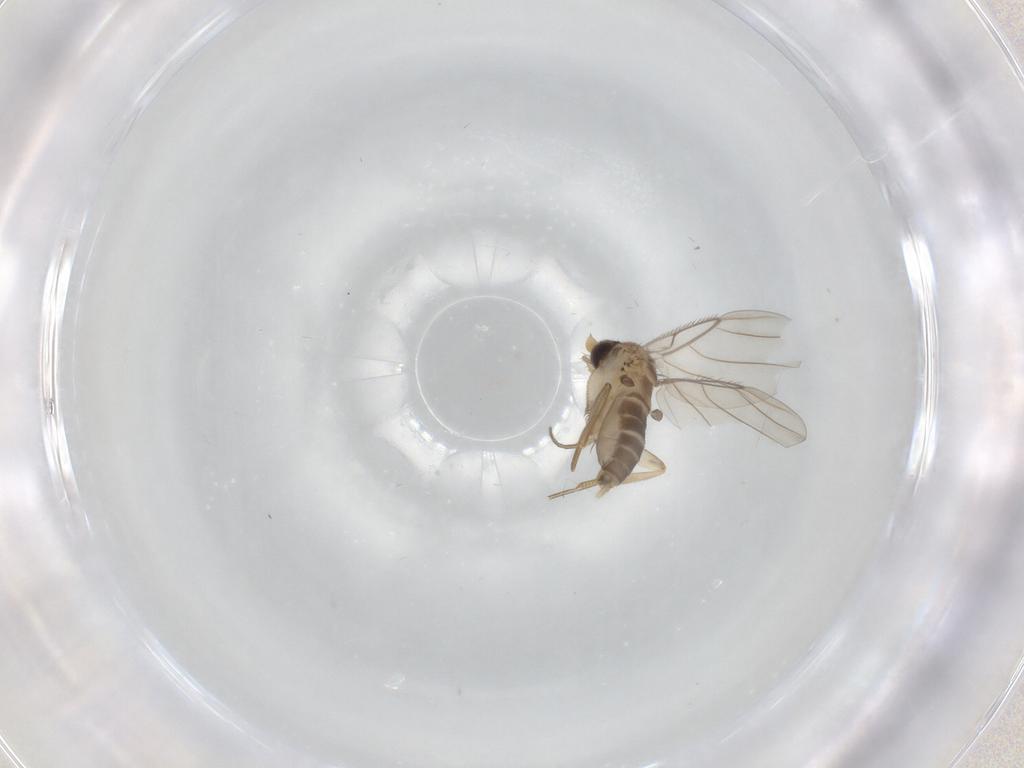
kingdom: Animalia
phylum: Arthropoda
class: Insecta
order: Diptera
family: Phoridae
